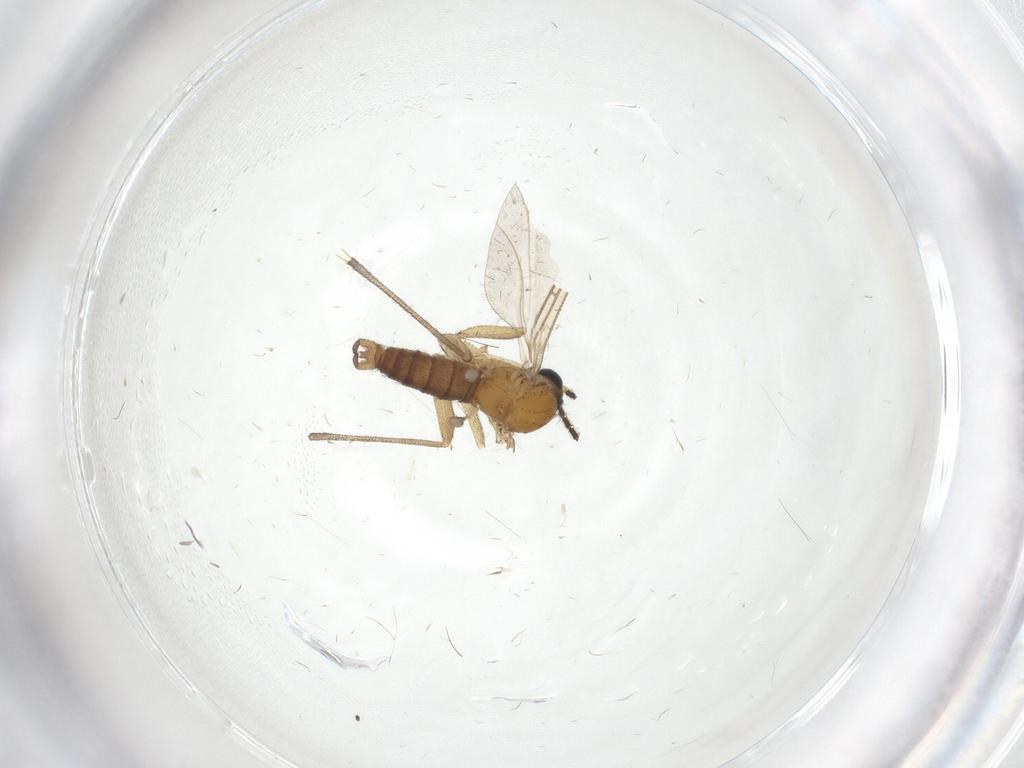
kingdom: Animalia
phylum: Arthropoda
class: Insecta
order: Diptera
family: Sciaridae
